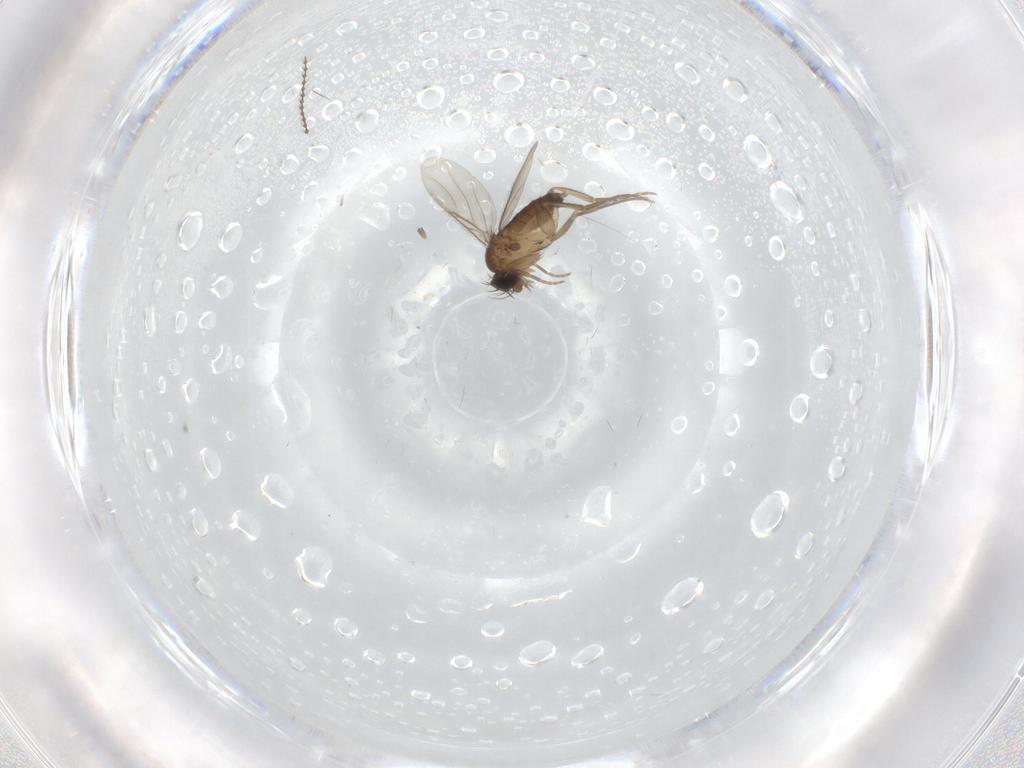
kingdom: Animalia
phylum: Arthropoda
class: Insecta
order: Diptera
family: Phoridae
